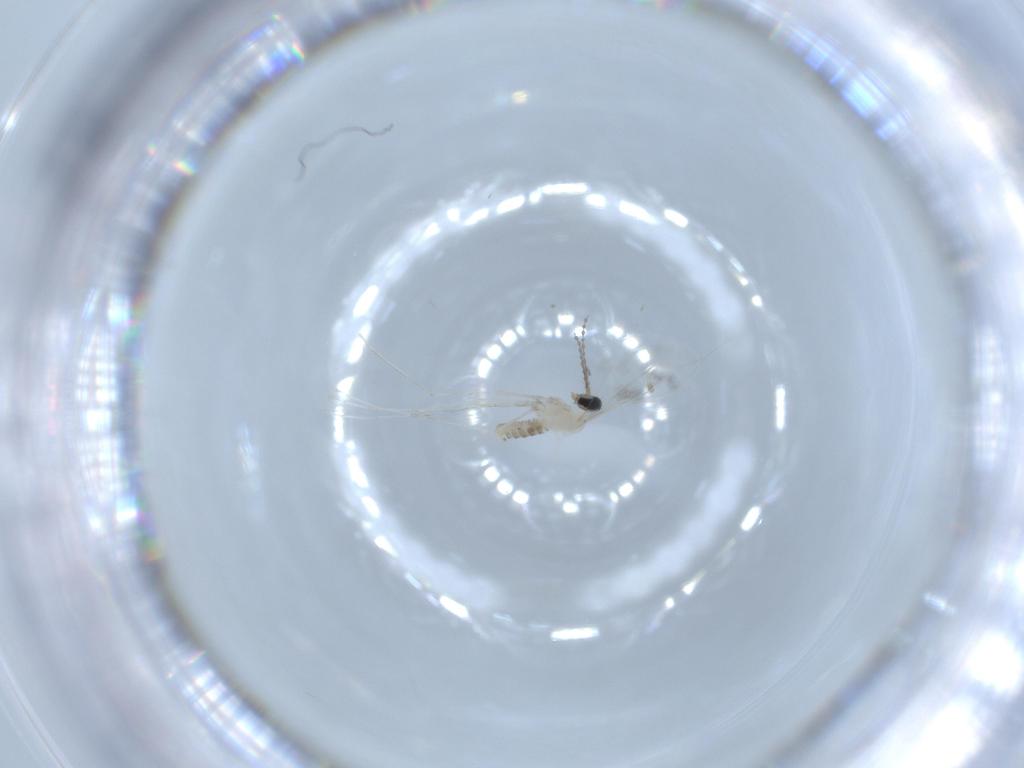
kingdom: Animalia
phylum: Arthropoda
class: Insecta
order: Diptera
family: Cecidomyiidae
